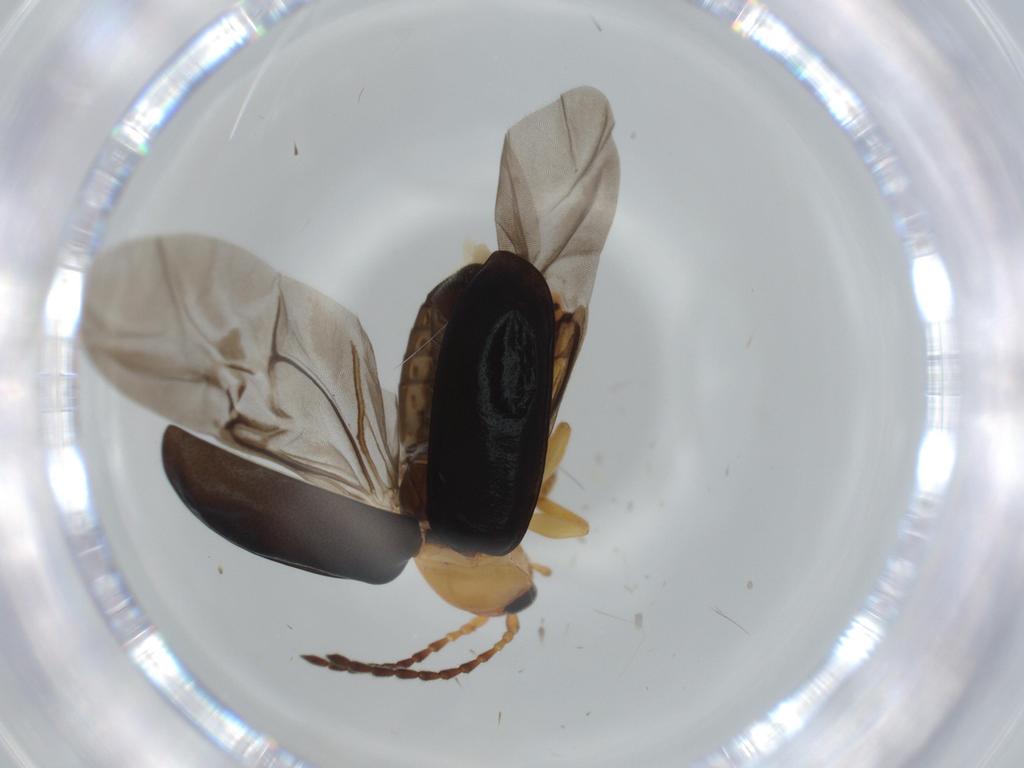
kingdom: Animalia
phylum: Arthropoda
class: Insecta
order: Coleoptera
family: Chrysomelidae
